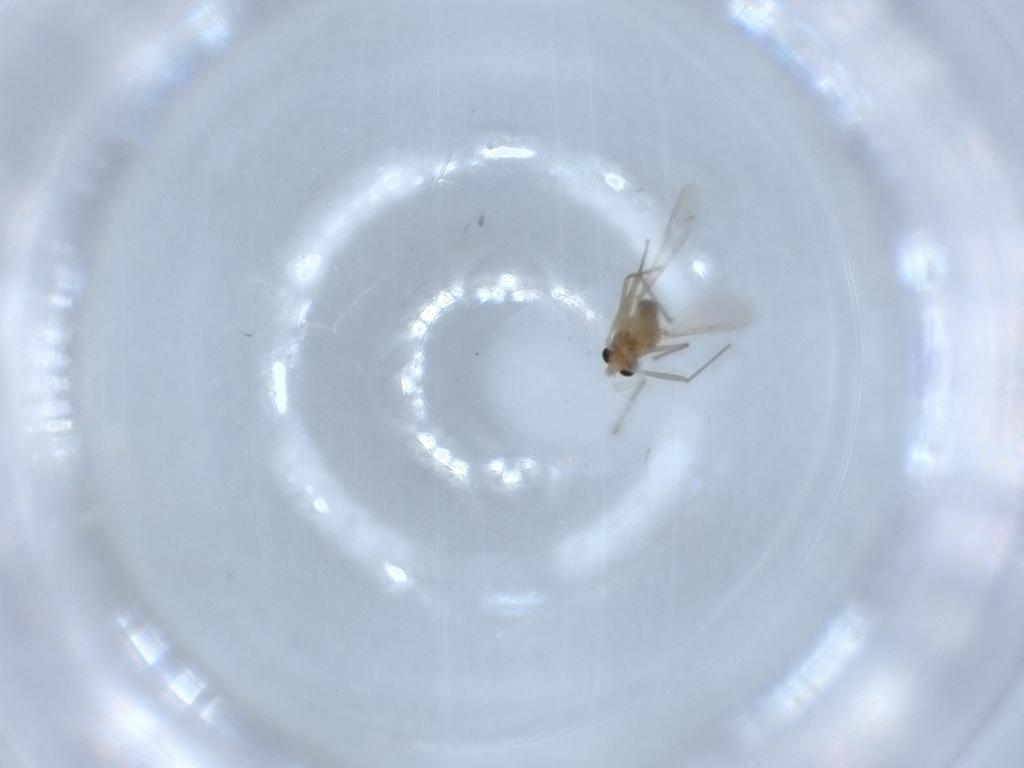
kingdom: Animalia
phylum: Arthropoda
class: Insecta
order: Diptera
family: Chironomidae
